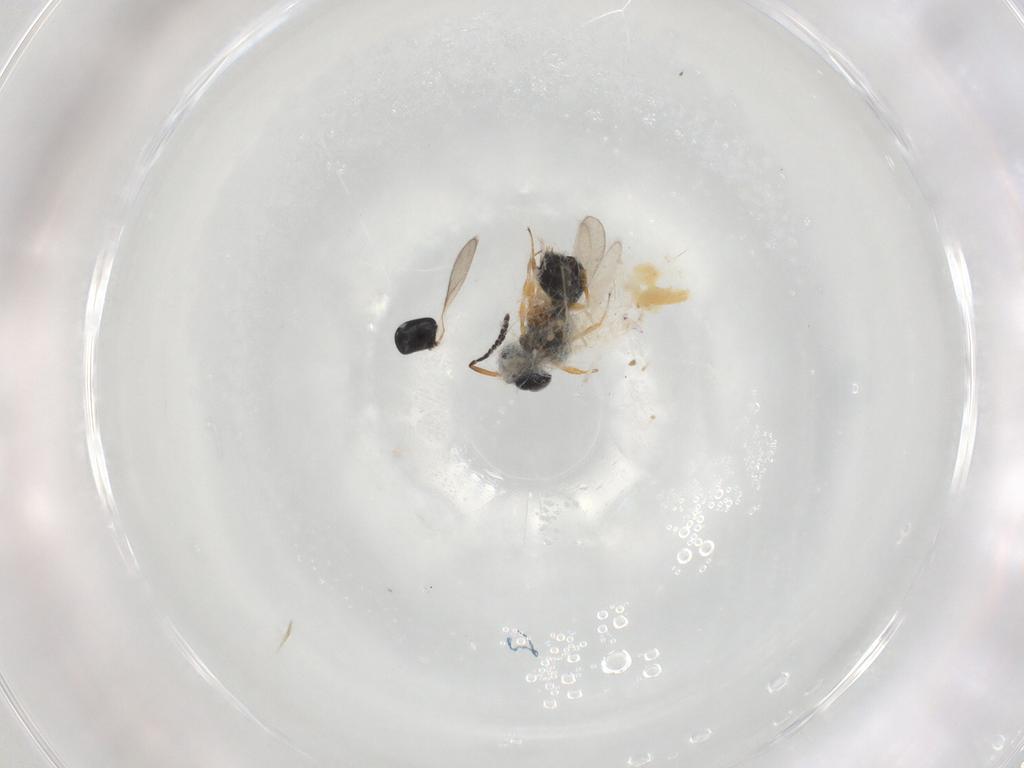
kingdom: Animalia
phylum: Arthropoda
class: Insecta
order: Hymenoptera
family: Scelionidae
